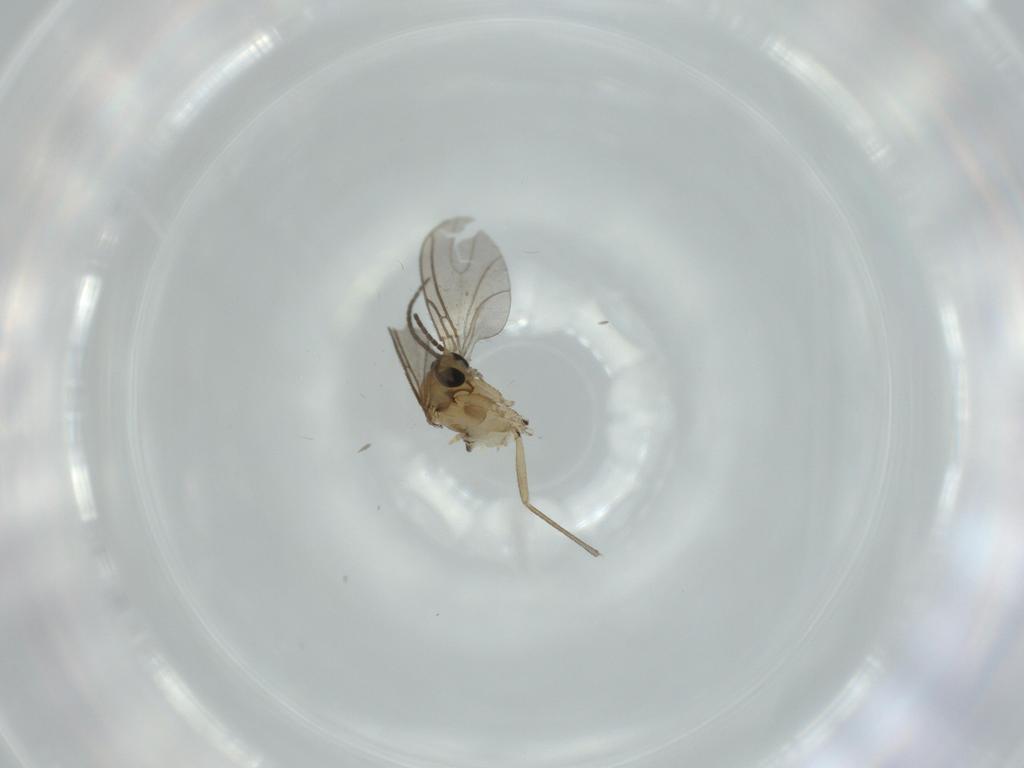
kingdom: Animalia
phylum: Arthropoda
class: Insecta
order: Diptera
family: Sciaridae
